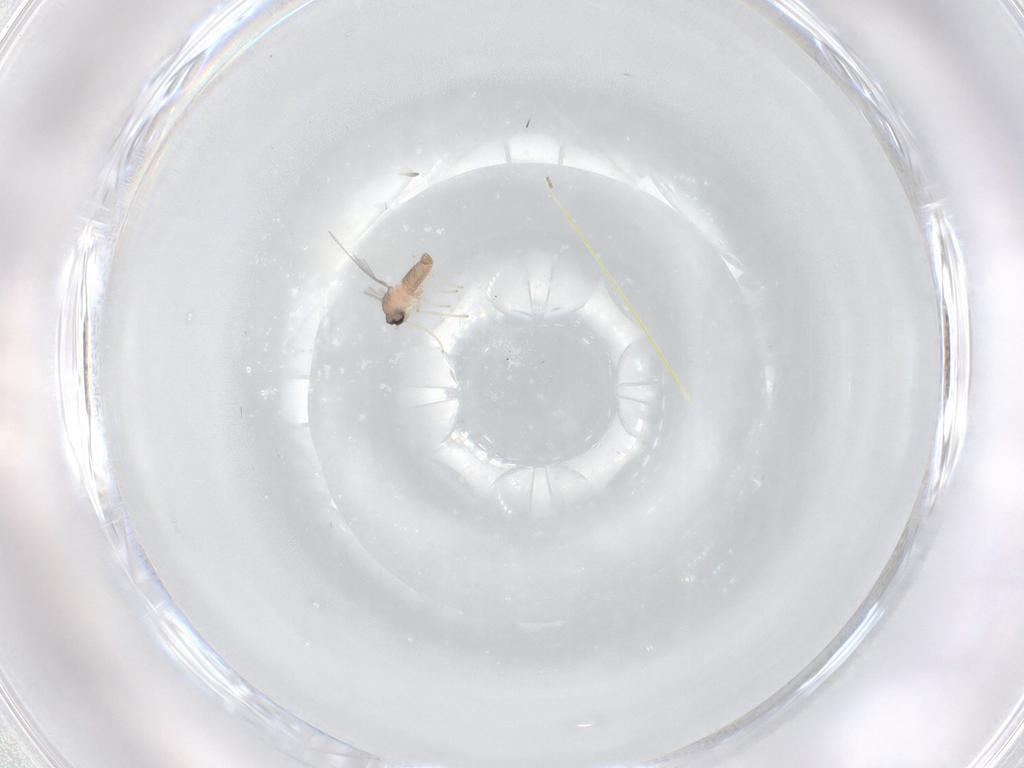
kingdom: Animalia
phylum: Arthropoda
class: Insecta
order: Diptera
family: Cecidomyiidae
